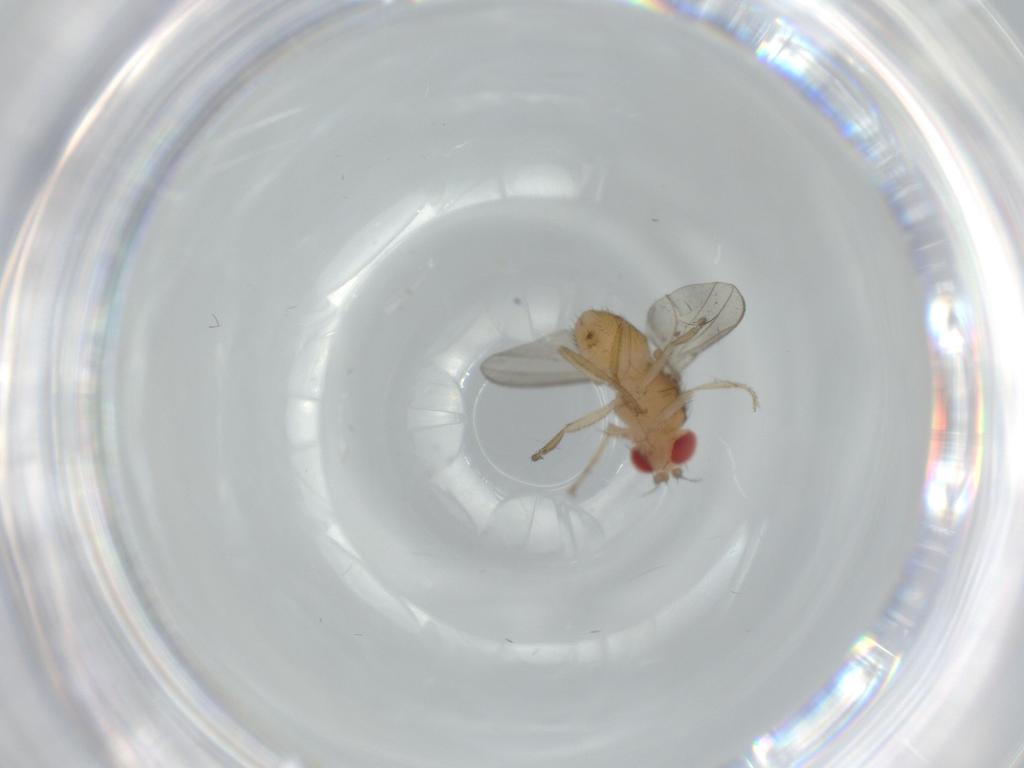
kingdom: Animalia
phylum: Arthropoda
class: Insecta
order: Diptera
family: Drosophilidae
